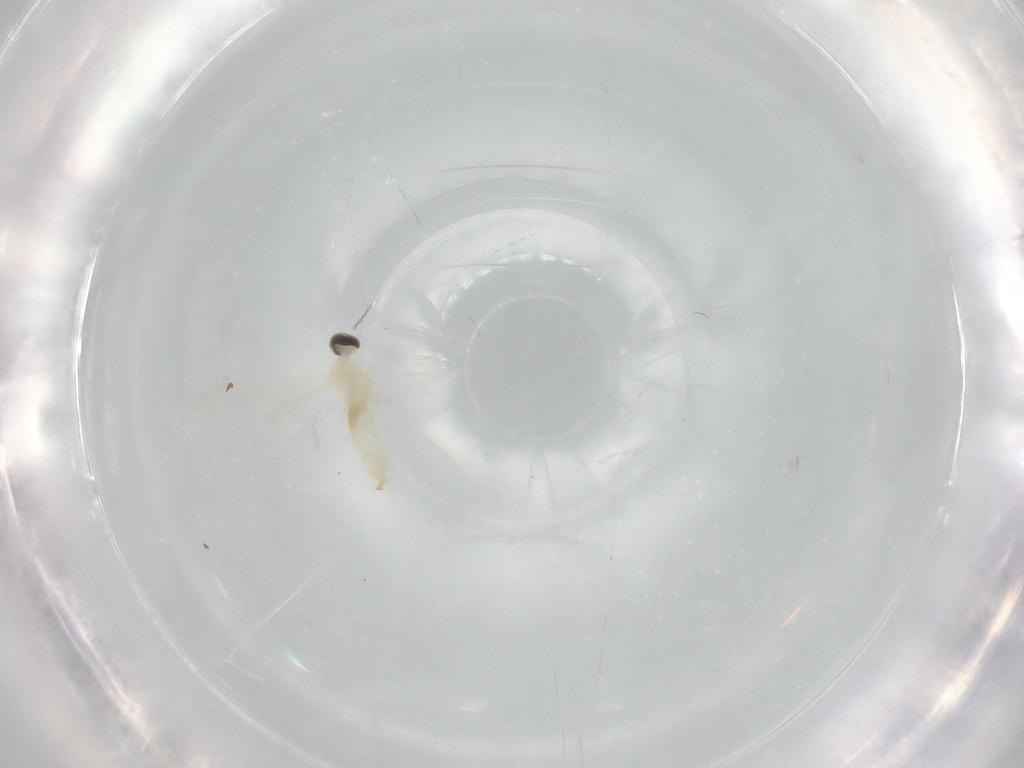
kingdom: Animalia
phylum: Arthropoda
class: Insecta
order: Diptera
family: Cecidomyiidae
